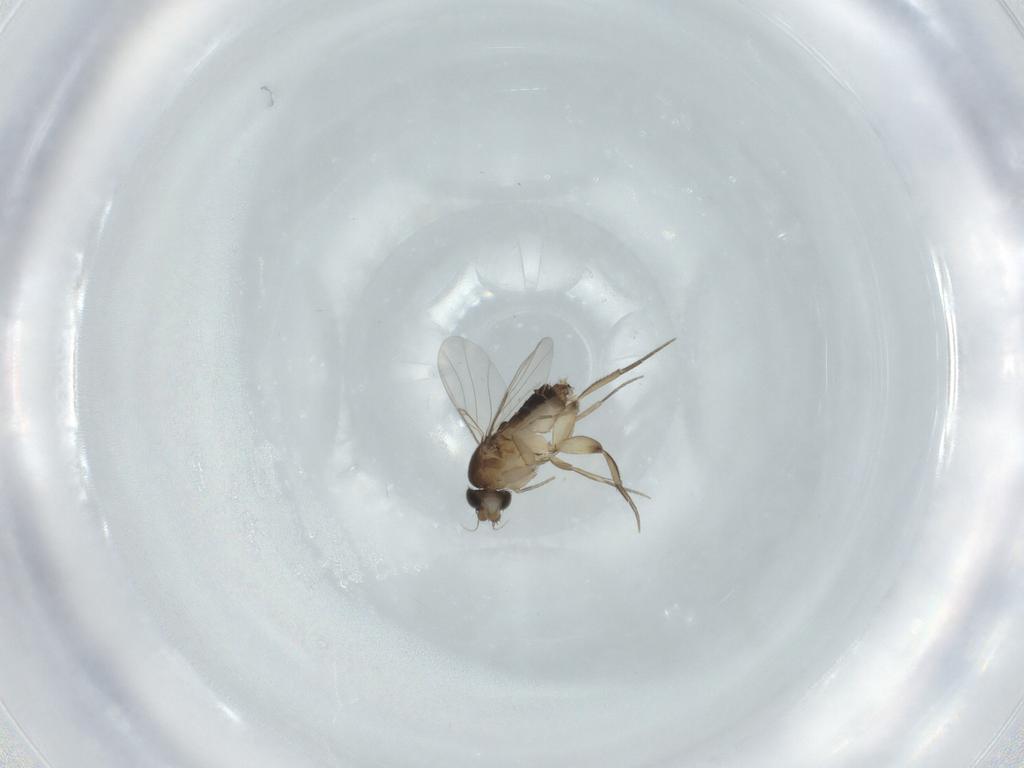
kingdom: Animalia
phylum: Arthropoda
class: Insecta
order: Diptera
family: Phoridae
